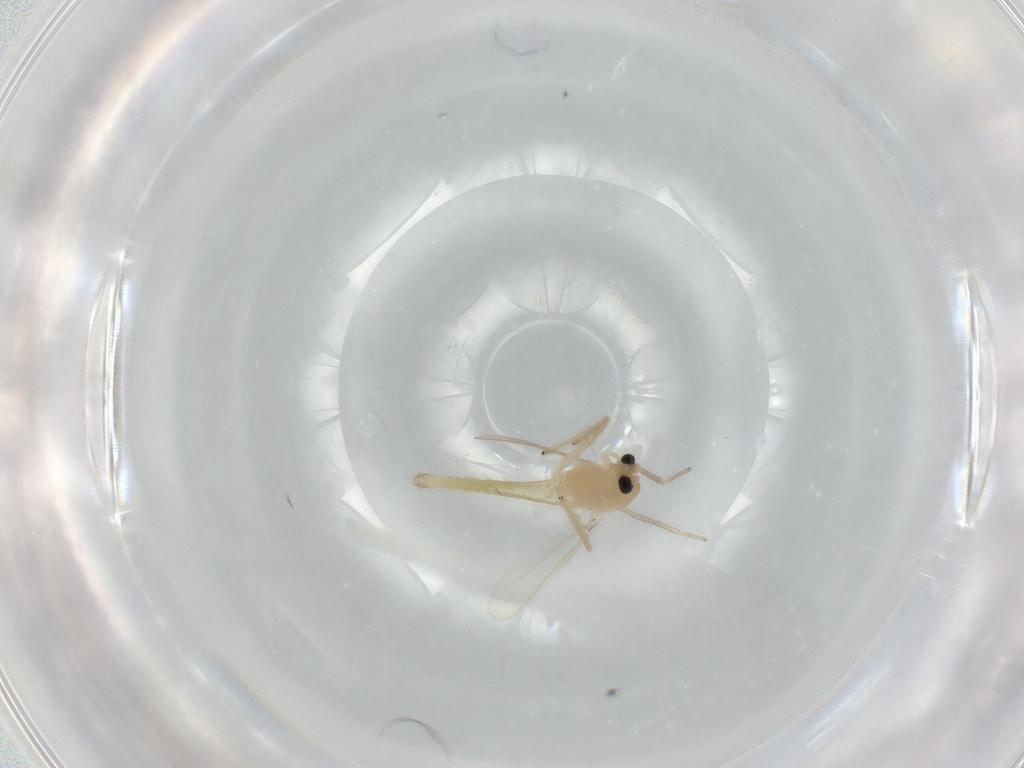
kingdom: Animalia
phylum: Arthropoda
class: Insecta
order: Diptera
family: Chironomidae
